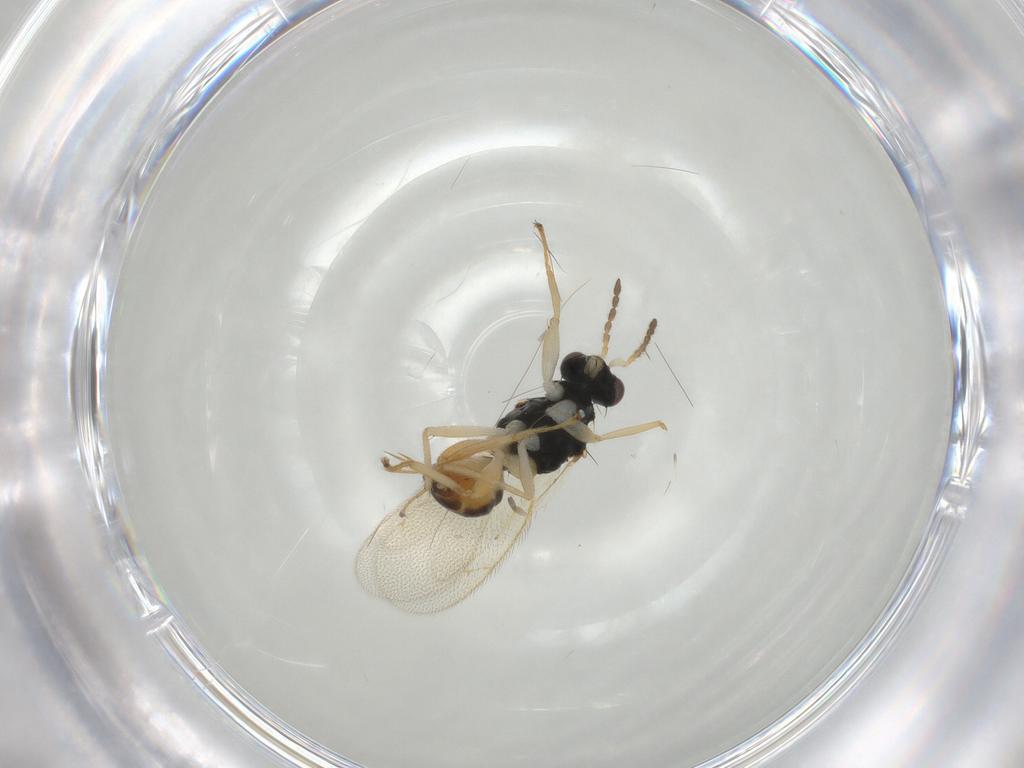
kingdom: Animalia
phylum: Arthropoda
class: Insecta
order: Hymenoptera
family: Eulophidae
